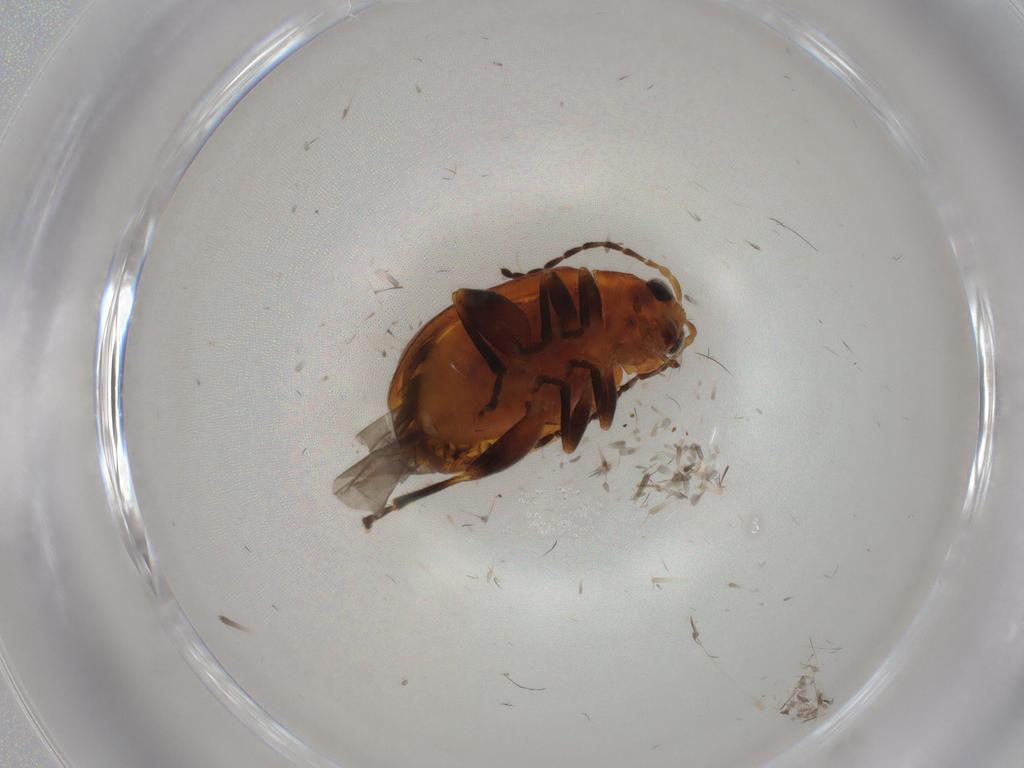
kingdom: Animalia
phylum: Arthropoda
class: Insecta
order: Coleoptera
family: Chrysomelidae
